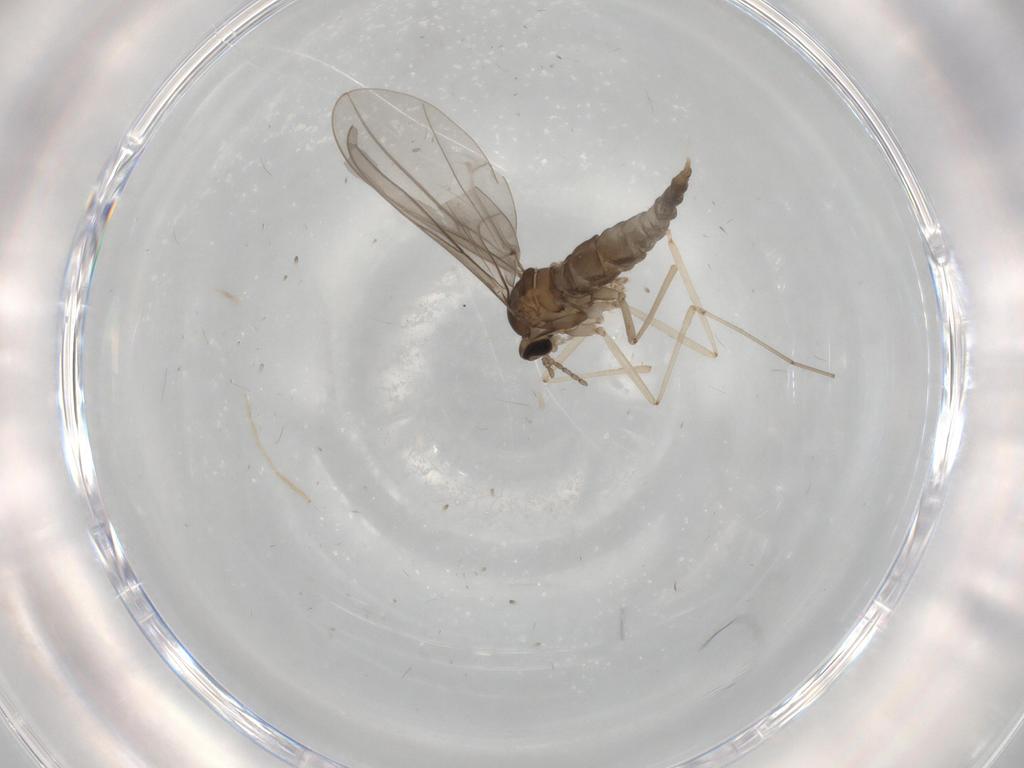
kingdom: Animalia
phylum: Arthropoda
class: Insecta
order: Diptera
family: Cecidomyiidae
